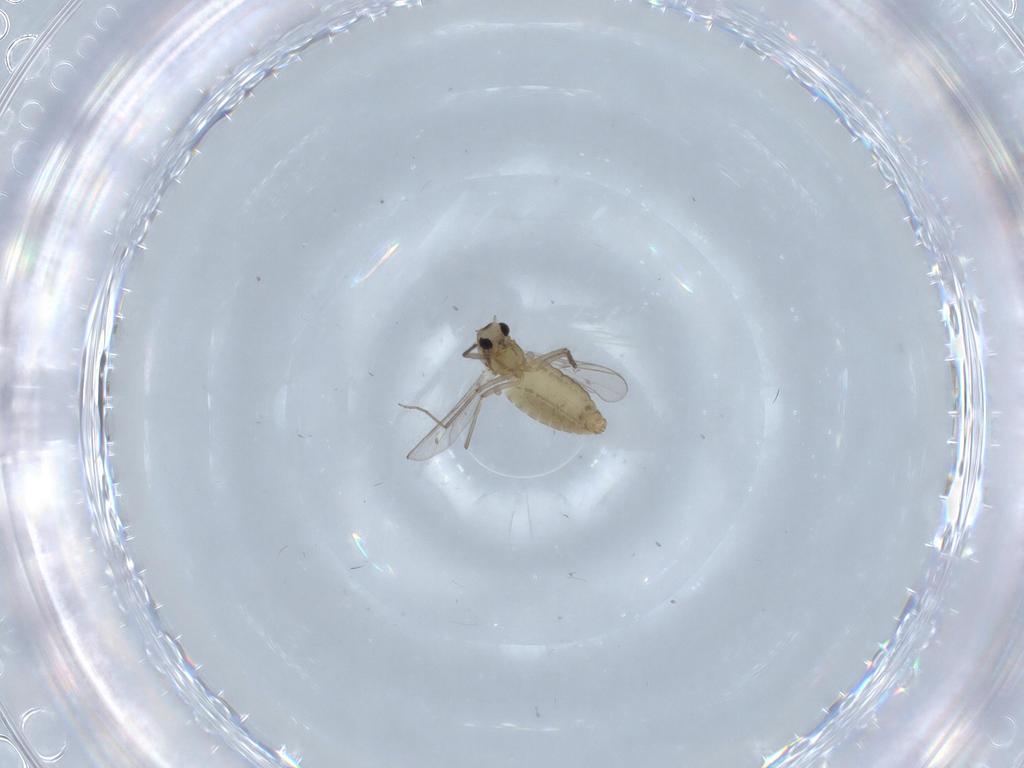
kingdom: Animalia
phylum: Arthropoda
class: Insecta
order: Diptera
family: Chironomidae
